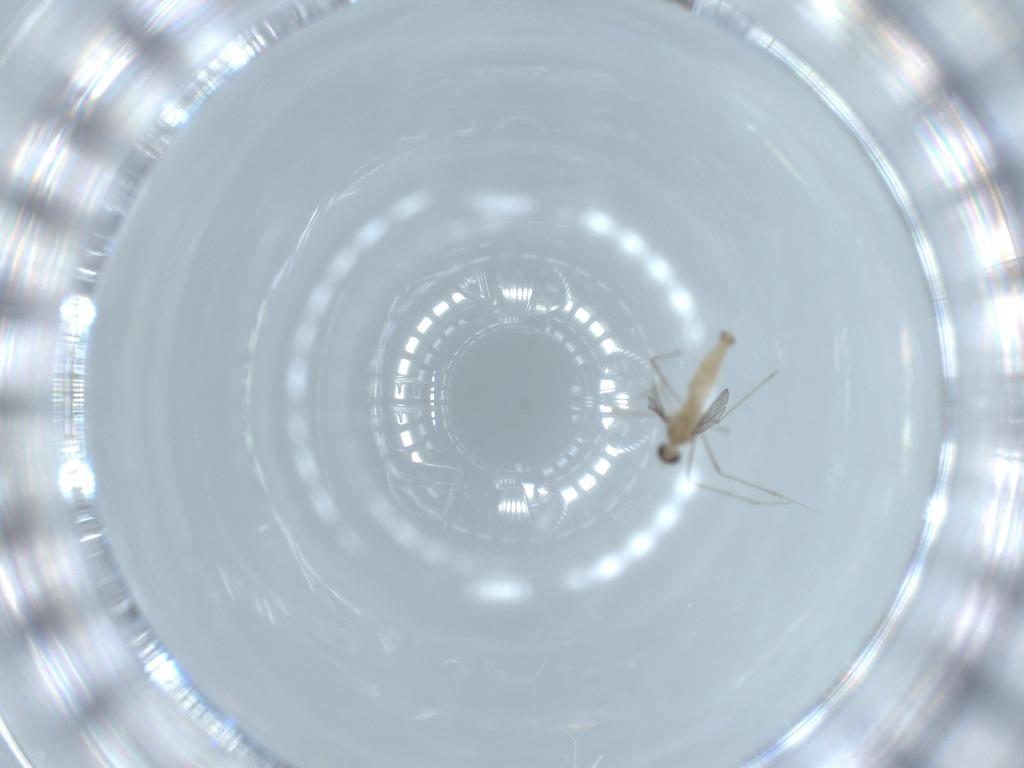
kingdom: Animalia
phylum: Arthropoda
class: Insecta
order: Diptera
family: Cecidomyiidae
